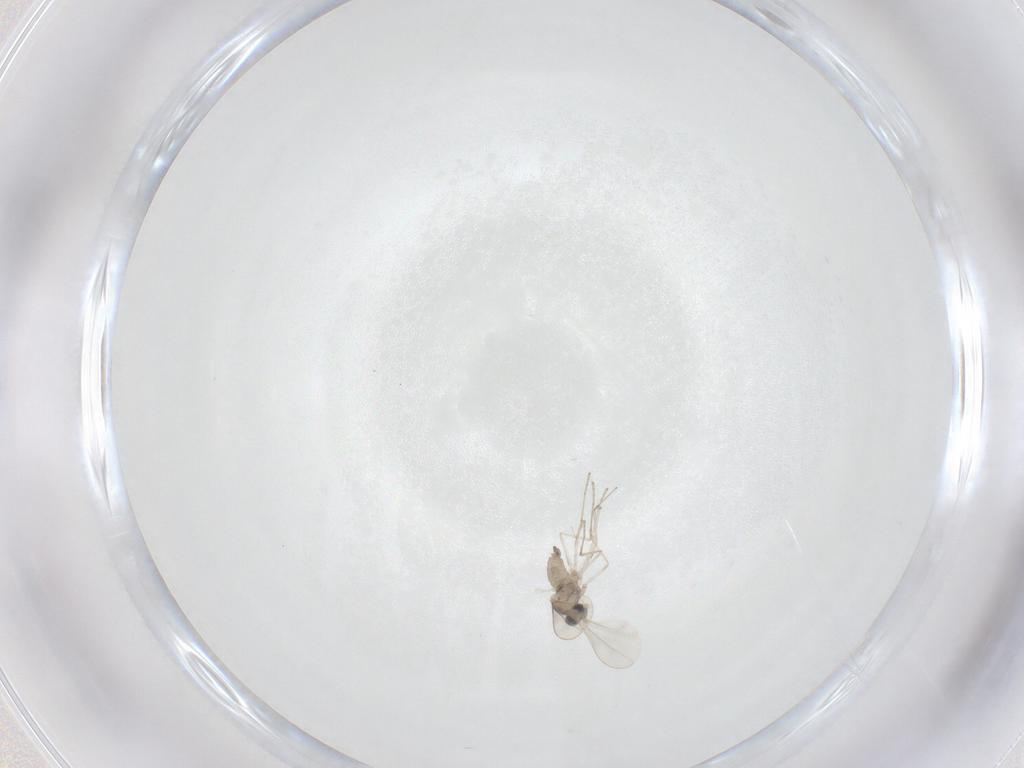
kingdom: Animalia
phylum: Arthropoda
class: Insecta
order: Diptera
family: Cecidomyiidae
